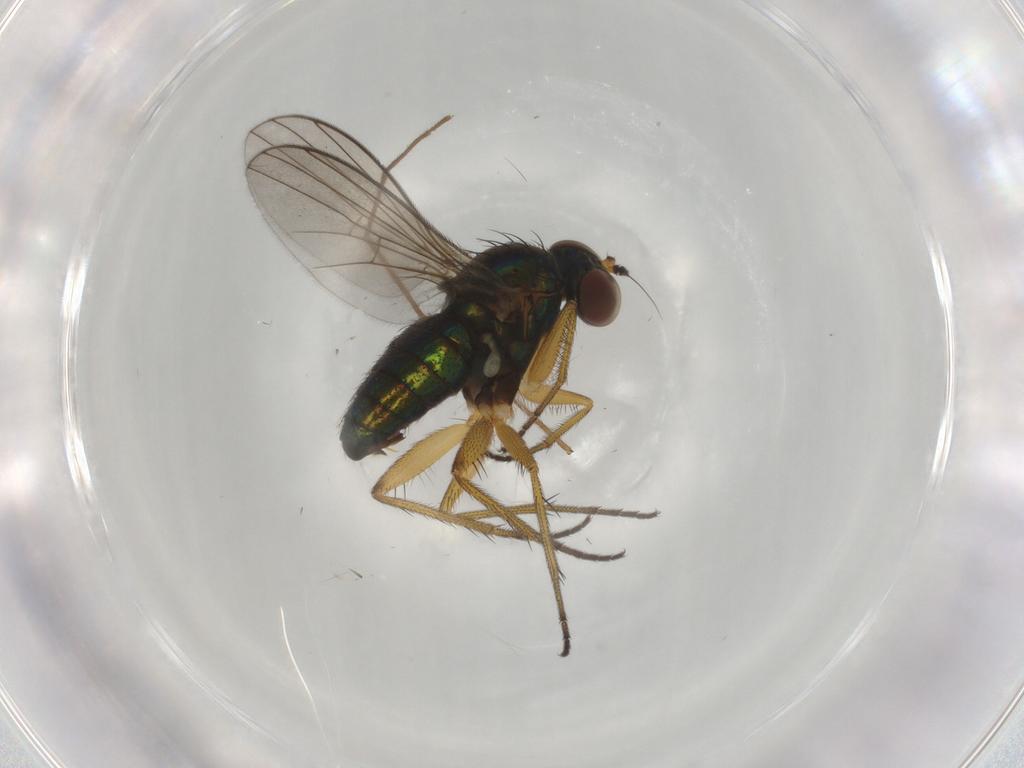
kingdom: Animalia
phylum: Arthropoda
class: Insecta
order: Diptera
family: Dolichopodidae
